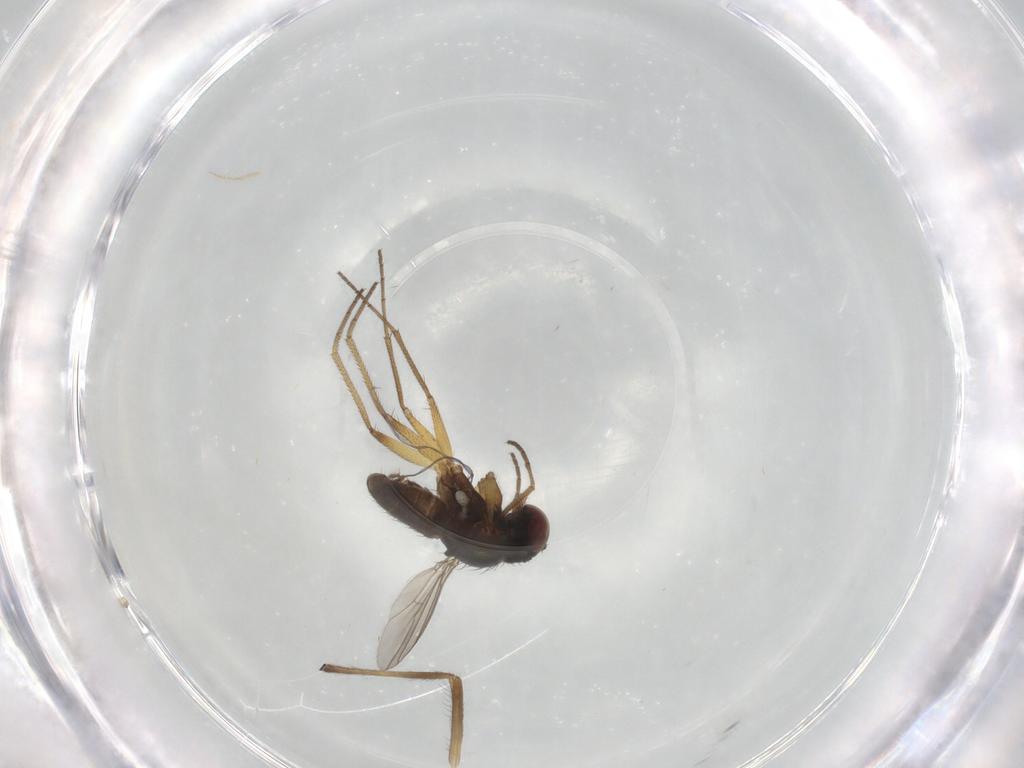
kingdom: Animalia
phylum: Arthropoda
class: Insecta
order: Diptera
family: Dolichopodidae
